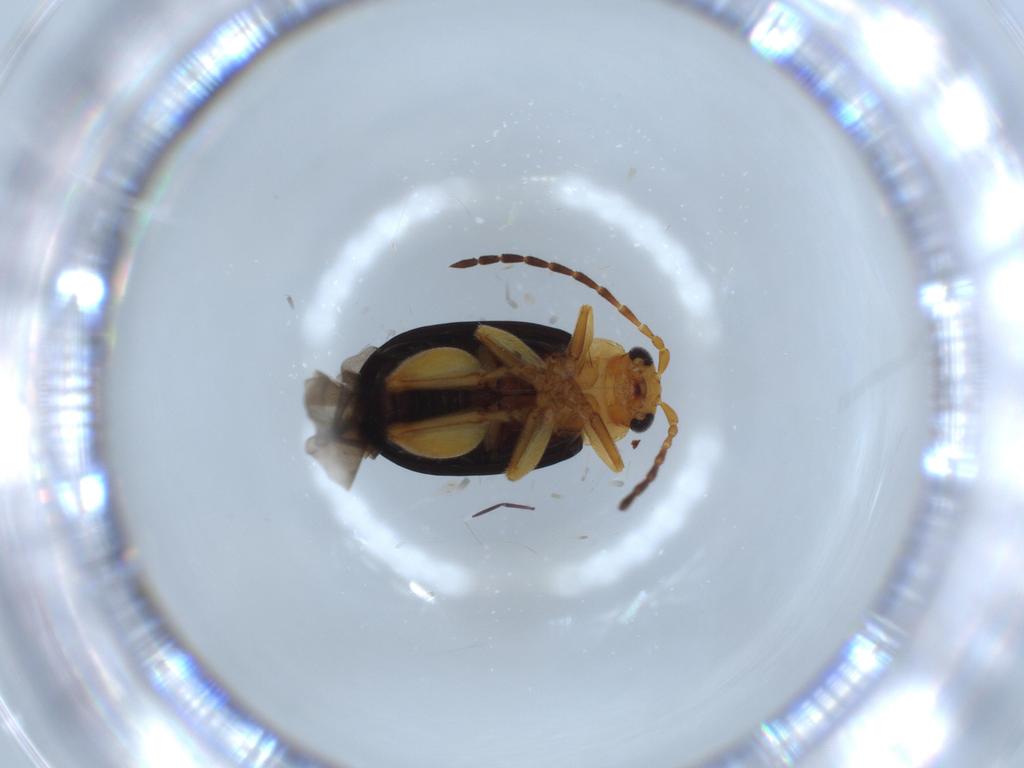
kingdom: Animalia
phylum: Arthropoda
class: Insecta
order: Coleoptera
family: Chrysomelidae
